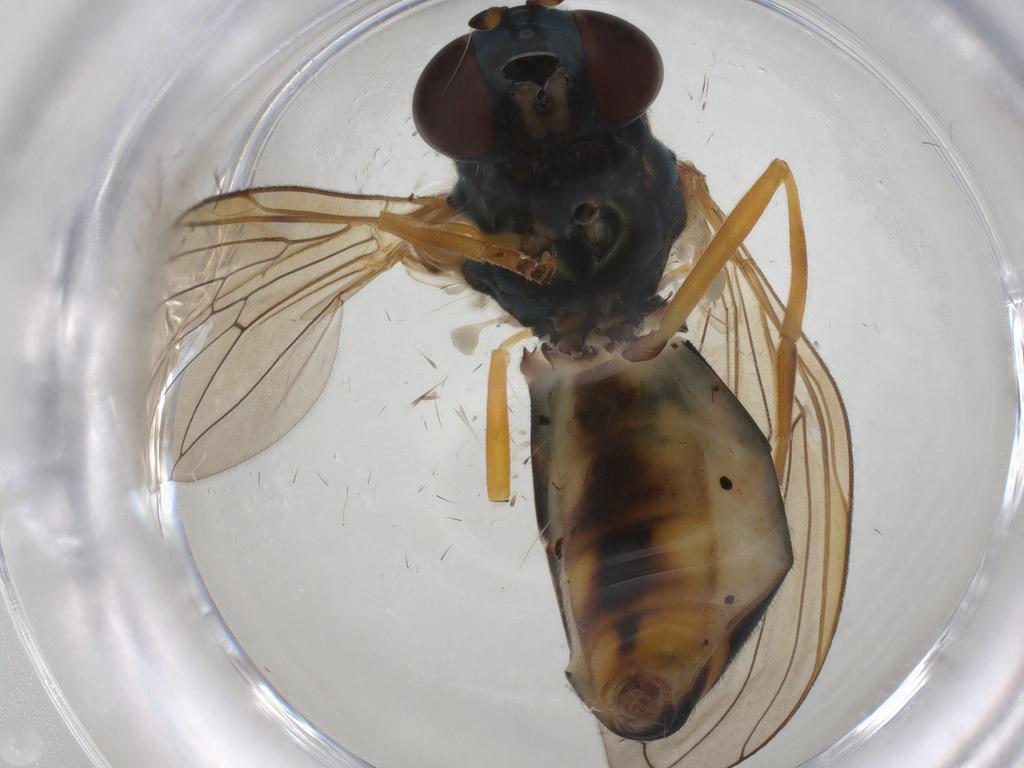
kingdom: Animalia
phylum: Arthropoda
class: Insecta
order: Diptera
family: Syrphidae
